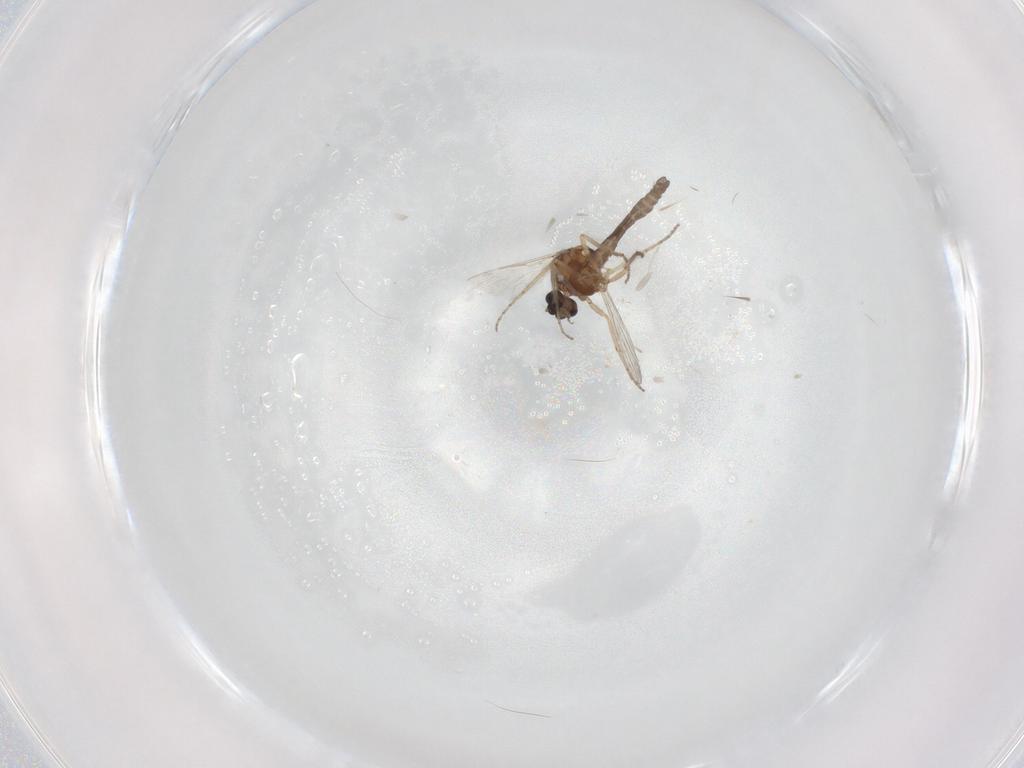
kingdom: Animalia
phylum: Arthropoda
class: Insecta
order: Diptera
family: Ceratopogonidae
